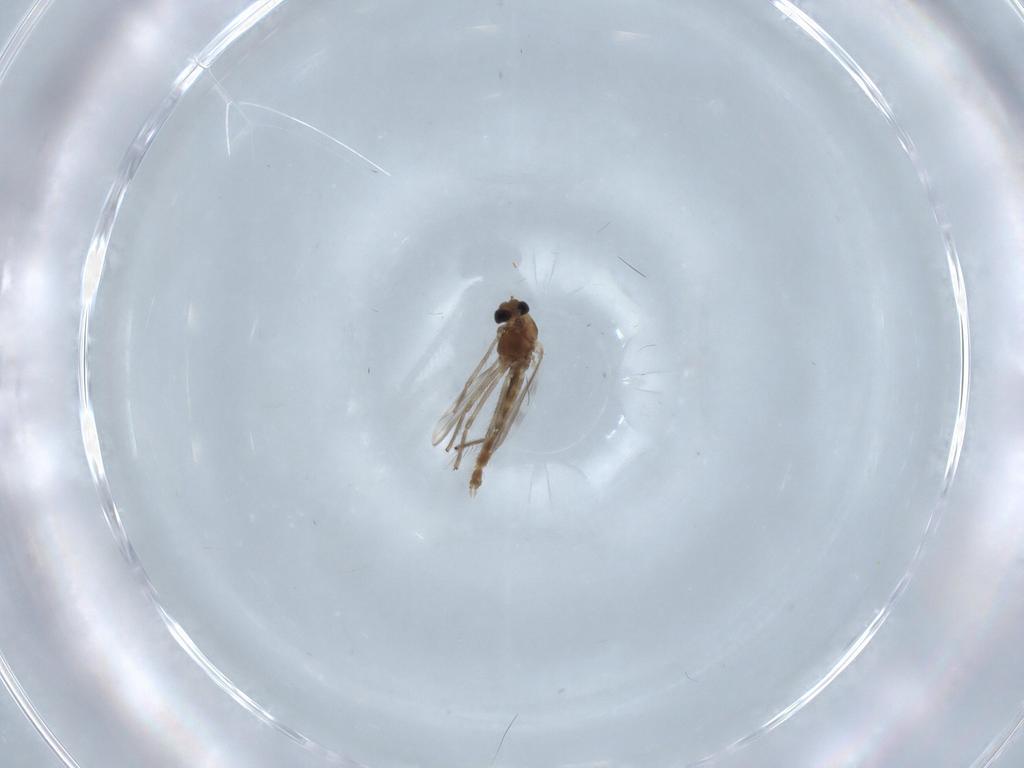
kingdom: Animalia
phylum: Arthropoda
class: Insecta
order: Diptera
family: Chironomidae
